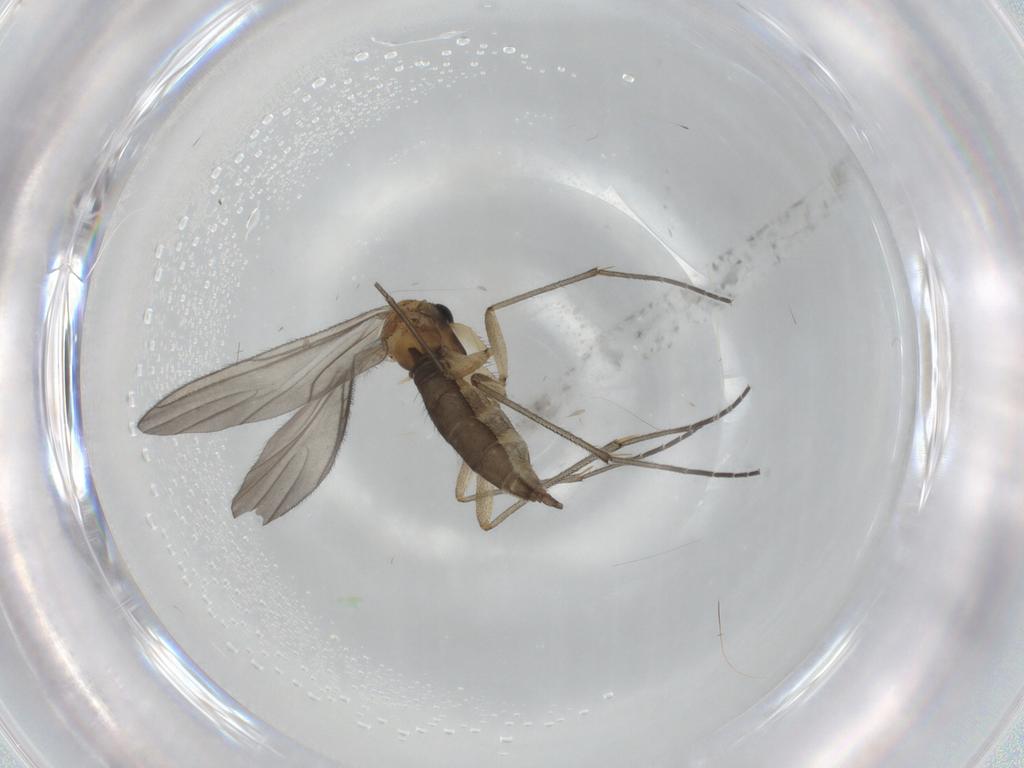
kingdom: Animalia
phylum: Arthropoda
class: Insecta
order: Diptera
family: Sciaridae
